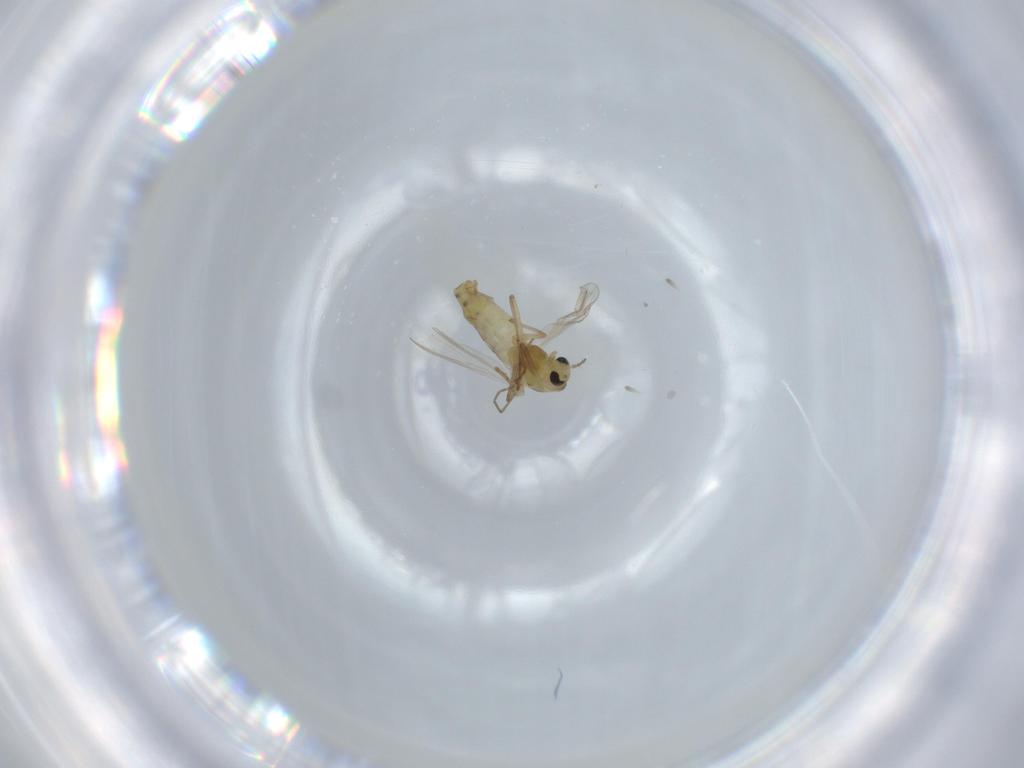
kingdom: Animalia
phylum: Arthropoda
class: Insecta
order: Diptera
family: Chironomidae
